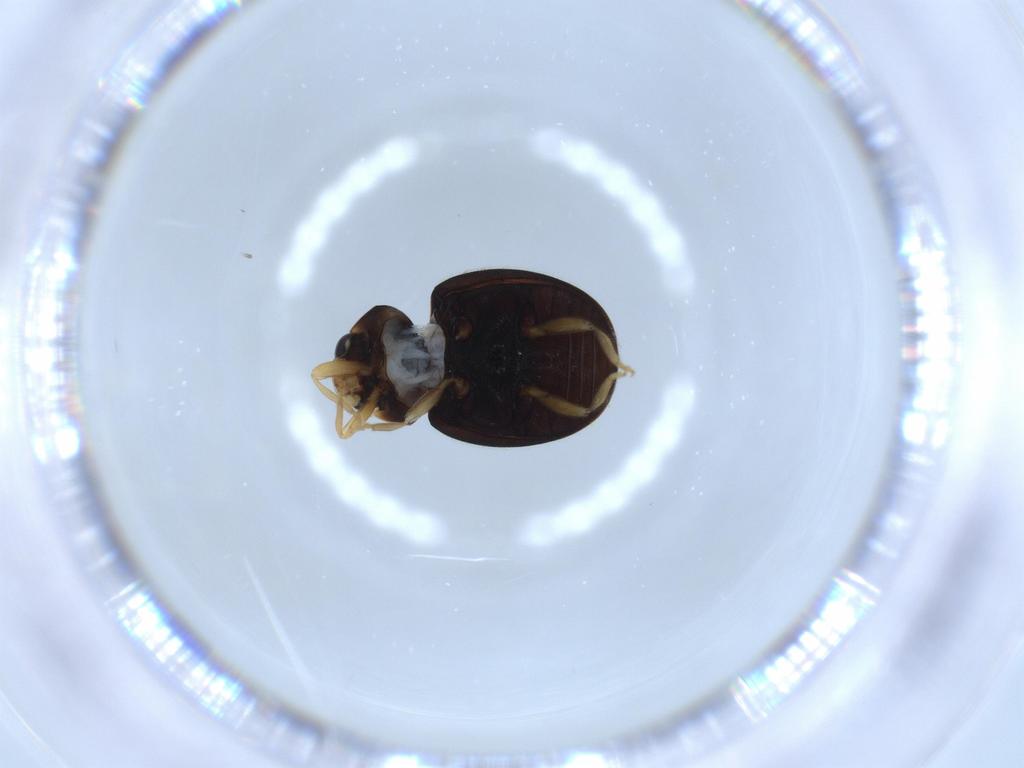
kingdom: Animalia
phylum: Arthropoda
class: Insecta
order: Coleoptera
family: Coccinellidae
